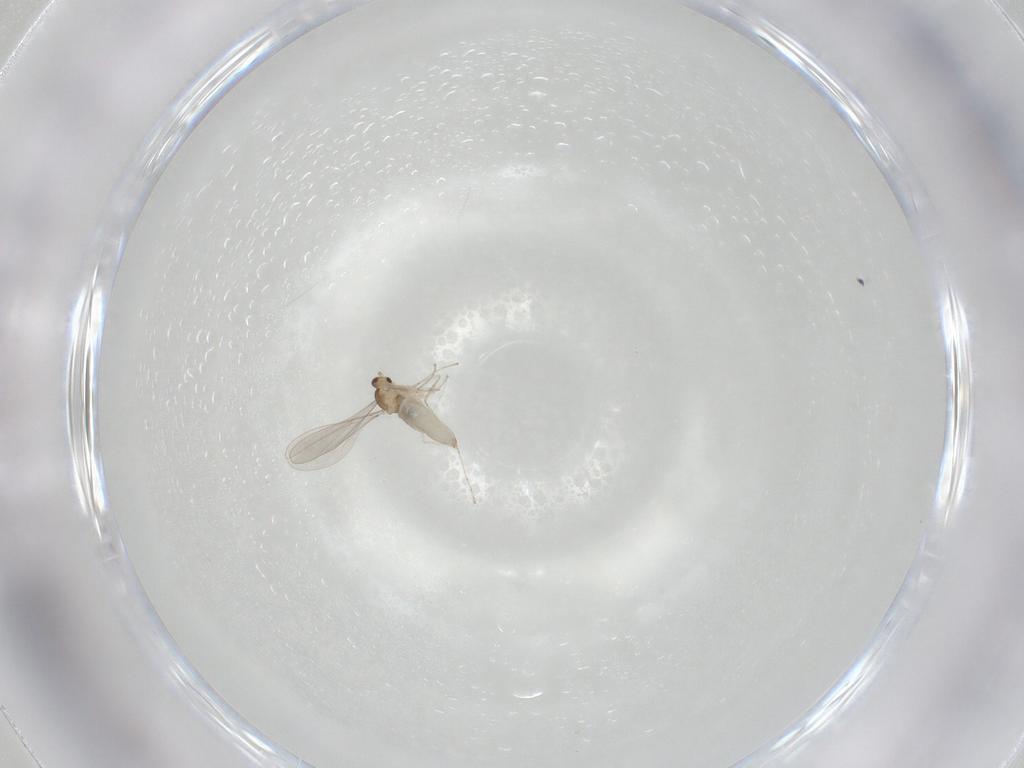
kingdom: Animalia
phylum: Arthropoda
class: Insecta
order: Diptera
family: Cecidomyiidae
